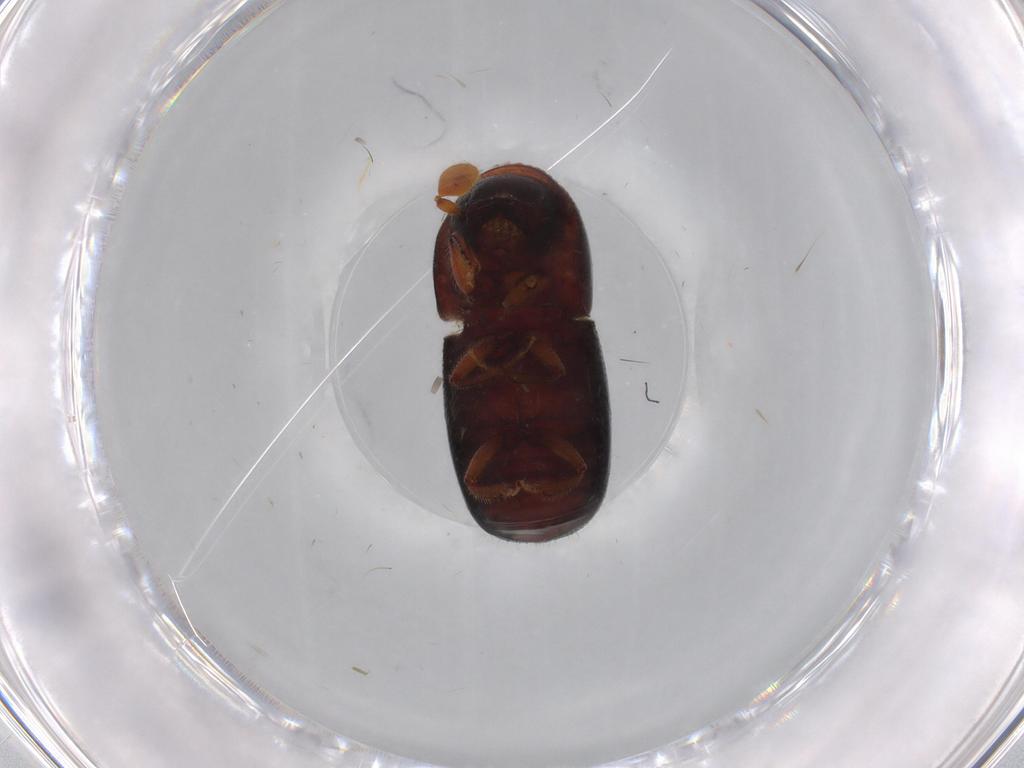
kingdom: Animalia
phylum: Arthropoda
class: Insecta
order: Coleoptera
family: Curculionidae
